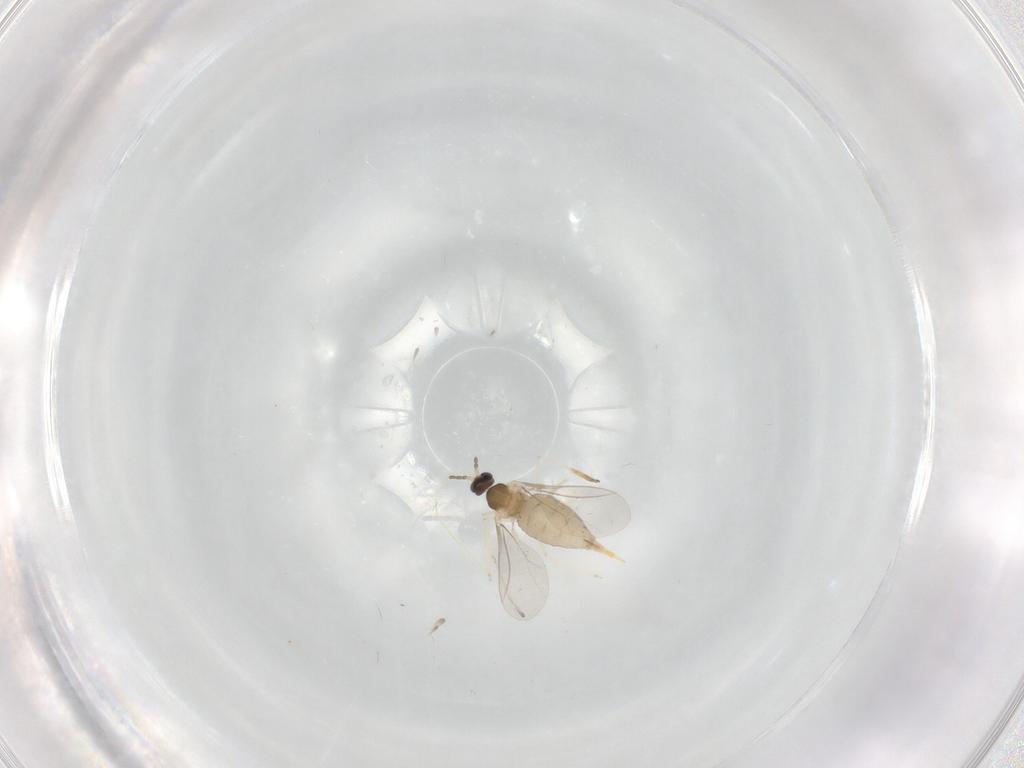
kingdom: Animalia
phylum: Arthropoda
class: Insecta
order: Diptera
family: Cecidomyiidae
